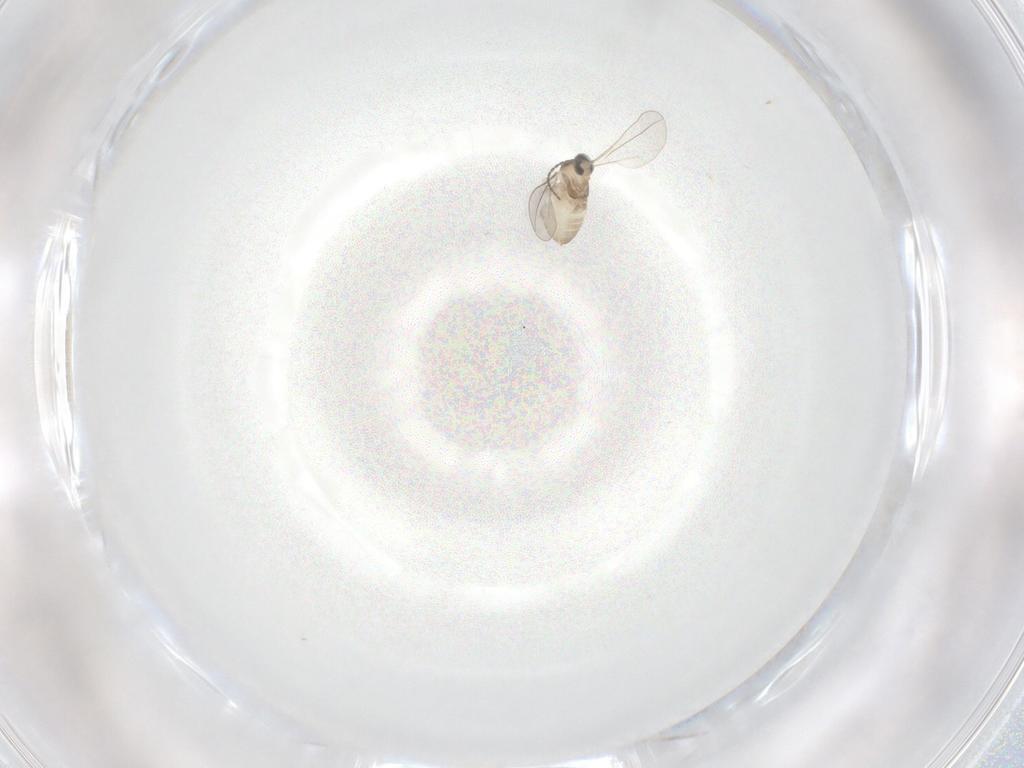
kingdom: Animalia
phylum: Arthropoda
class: Insecta
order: Diptera
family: Cecidomyiidae
